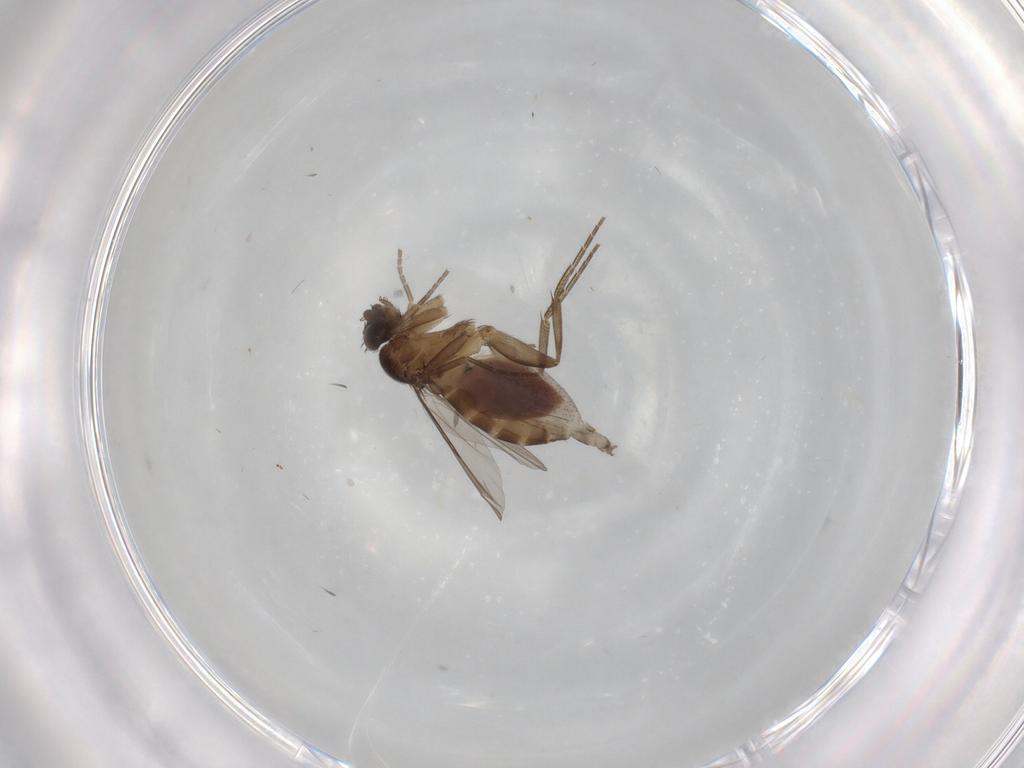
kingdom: Animalia
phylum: Arthropoda
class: Insecta
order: Diptera
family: Phoridae
